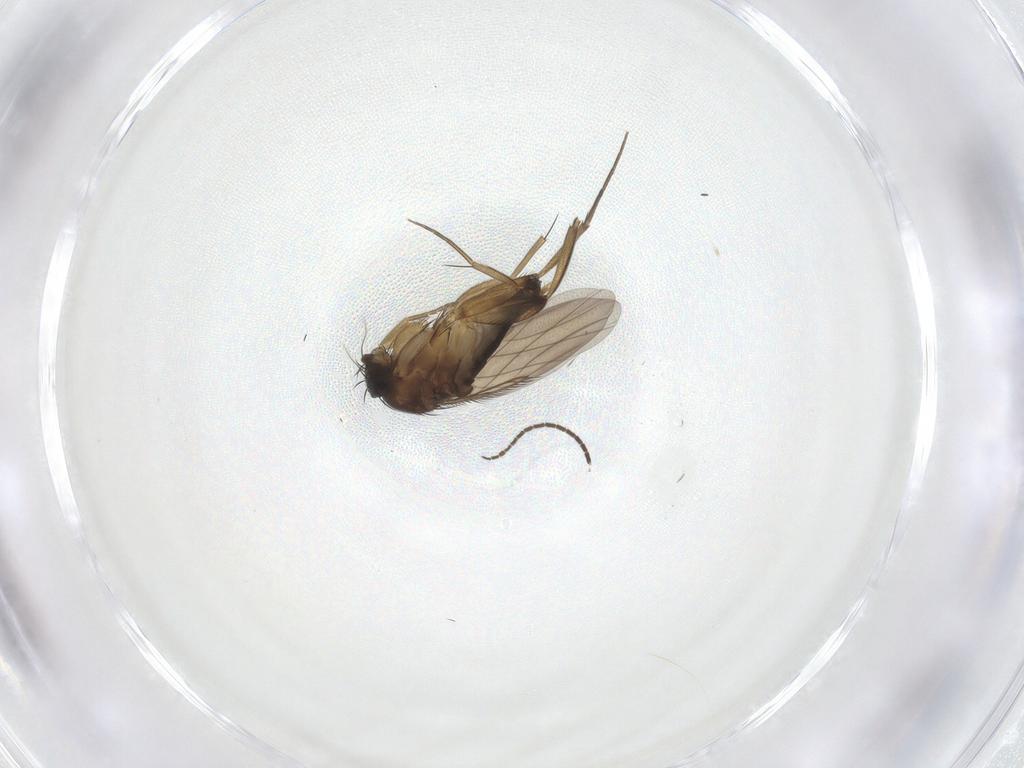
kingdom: Animalia
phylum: Arthropoda
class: Insecta
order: Diptera
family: Phoridae
